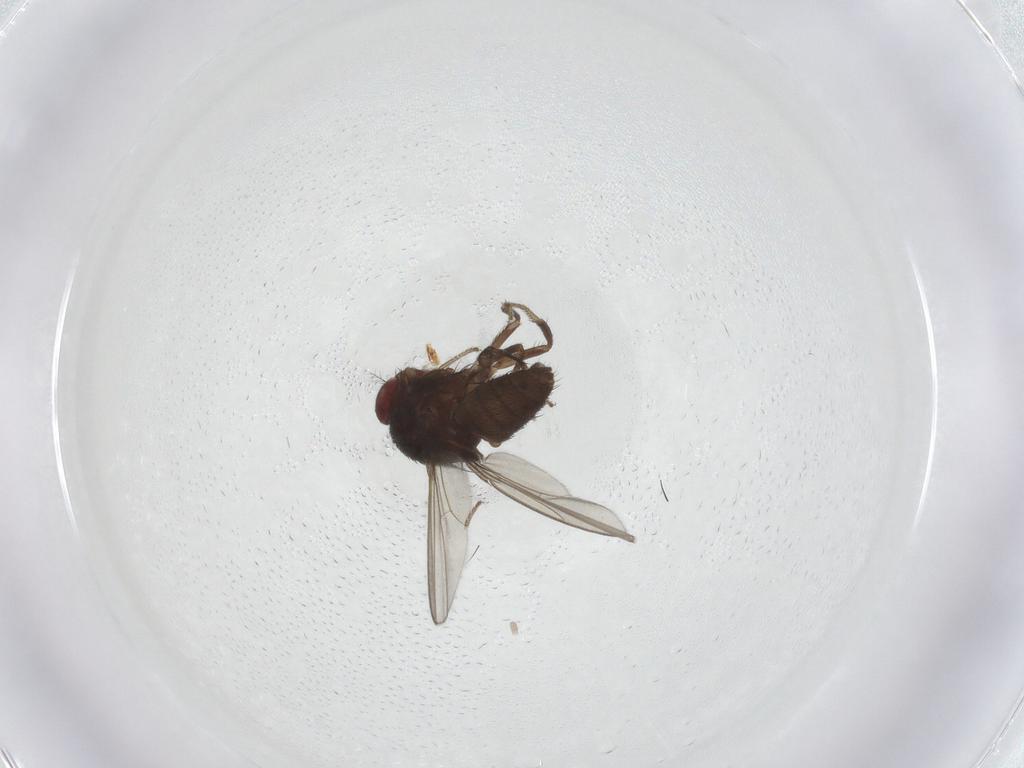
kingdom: Animalia
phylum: Arthropoda
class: Insecta
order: Diptera
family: Drosophilidae
